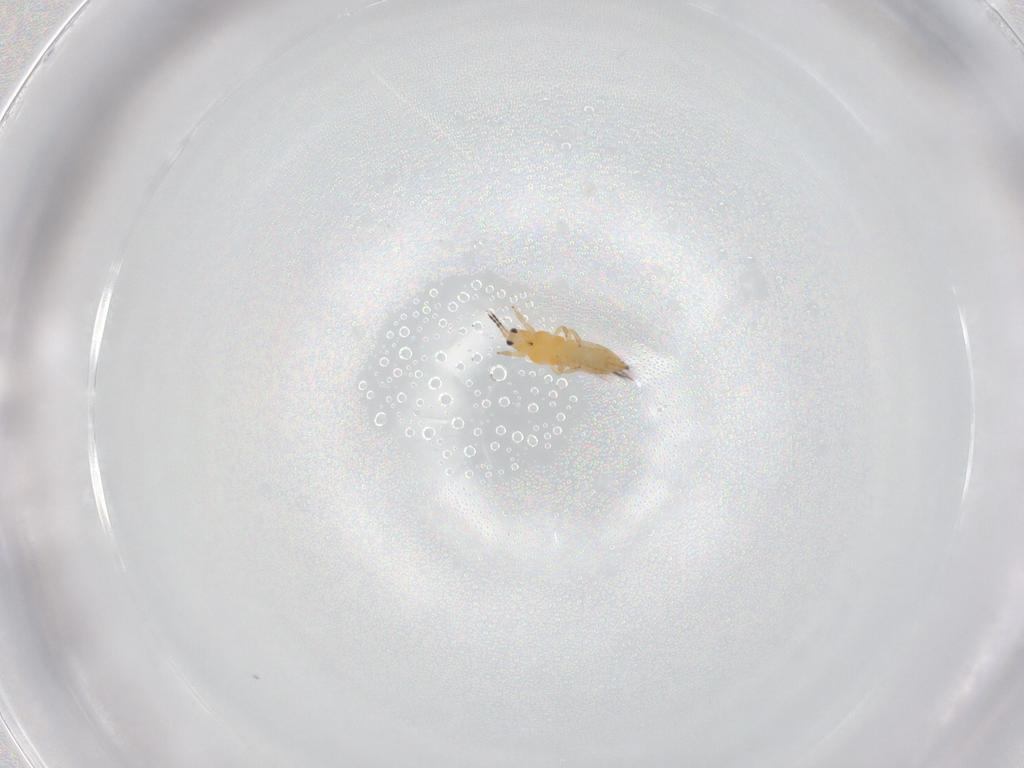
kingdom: Animalia
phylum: Arthropoda
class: Insecta
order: Thysanoptera
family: Thripidae
